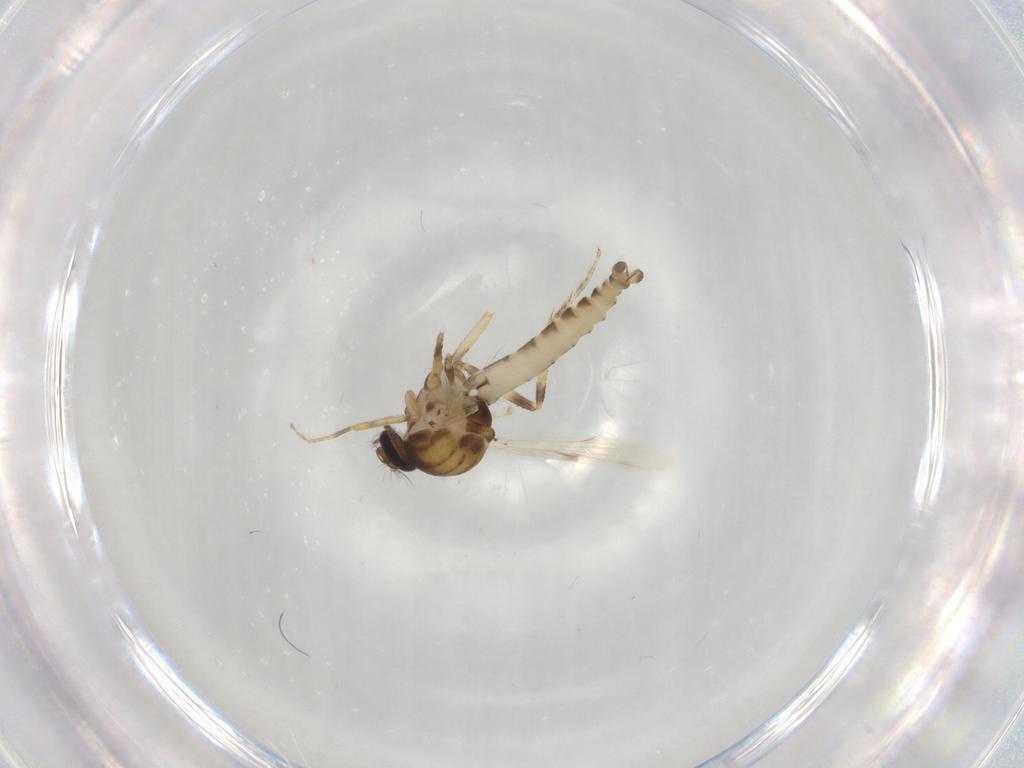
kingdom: Animalia
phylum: Arthropoda
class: Insecta
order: Diptera
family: Ceratopogonidae
